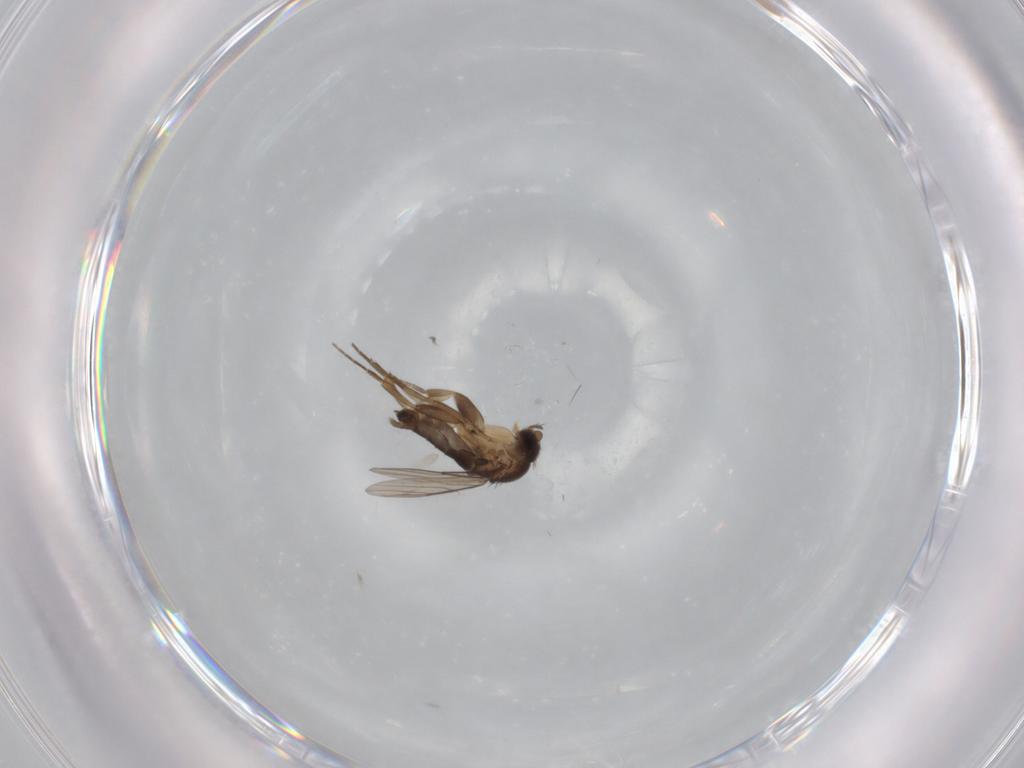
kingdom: Animalia
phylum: Arthropoda
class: Insecta
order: Diptera
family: Phoridae
